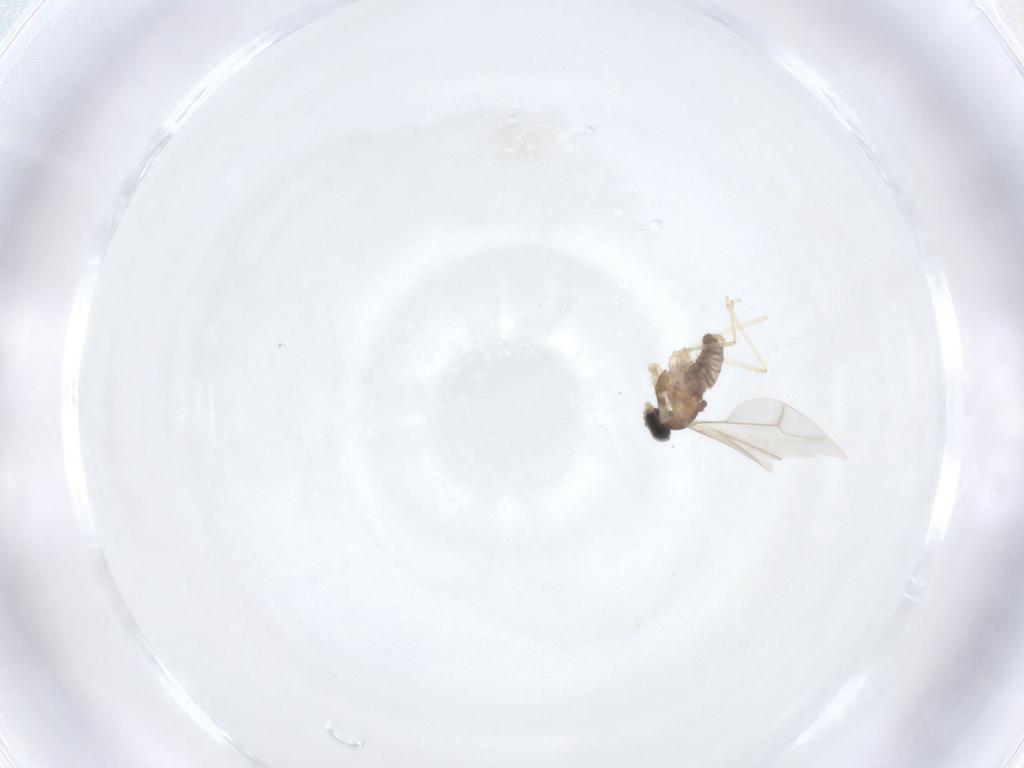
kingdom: Animalia
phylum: Arthropoda
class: Insecta
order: Diptera
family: Cecidomyiidae
